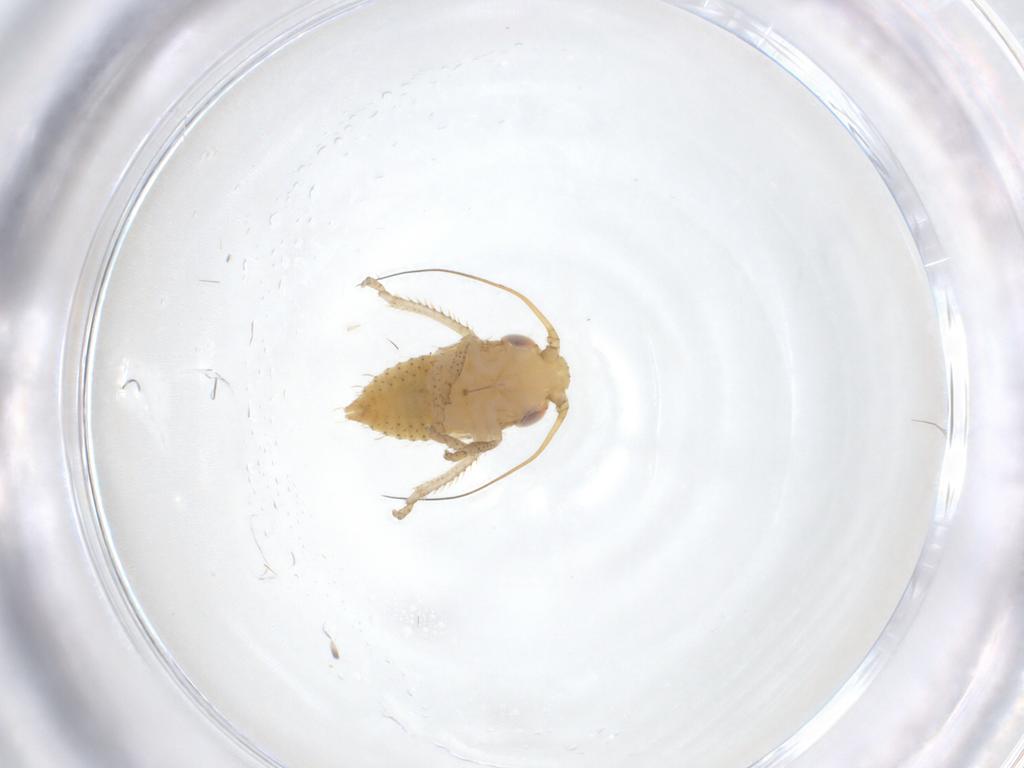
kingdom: Animalia
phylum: Arthropoda
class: Insecta
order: Hemiptera
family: Cicadellidae
